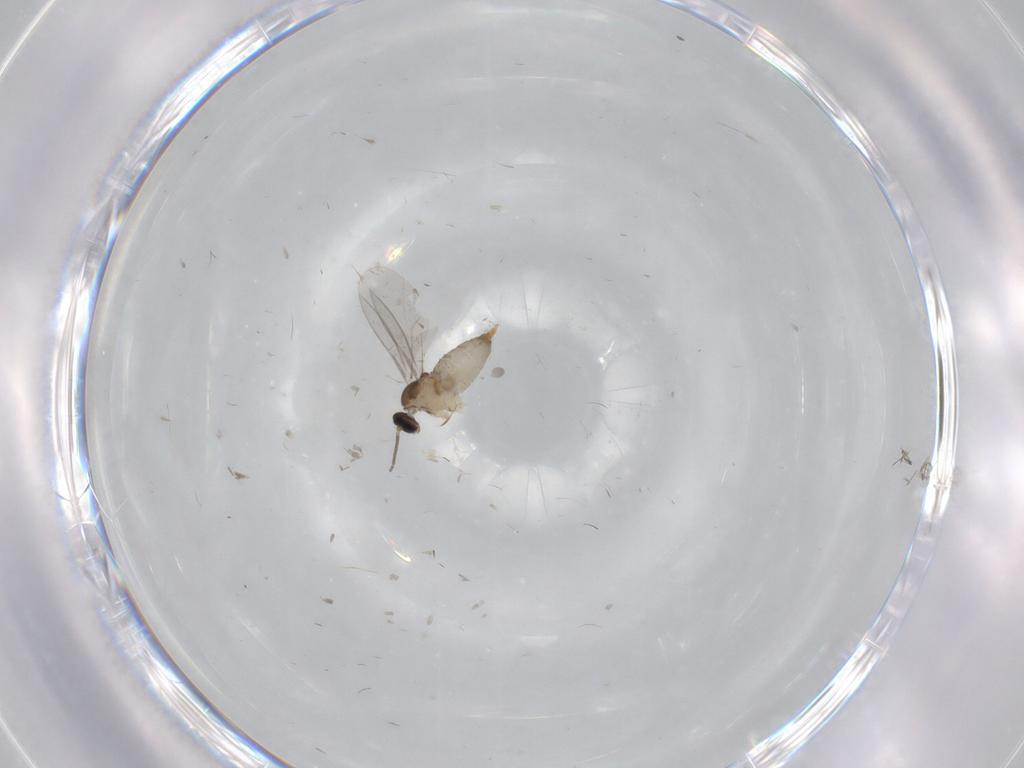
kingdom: Animalia
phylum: Arthropoda
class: Insecta
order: Diptera
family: Cecidomyiidae
